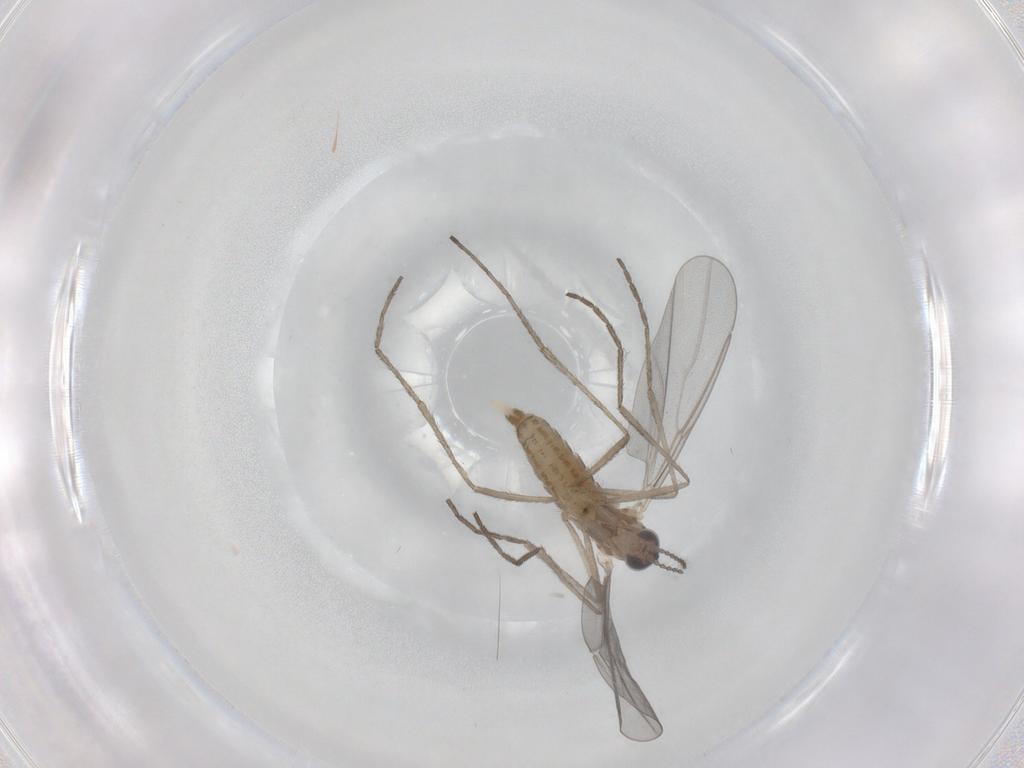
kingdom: Animalia
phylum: Arthropoda
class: Insecta
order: Diptera
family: Cecidomyiidae
